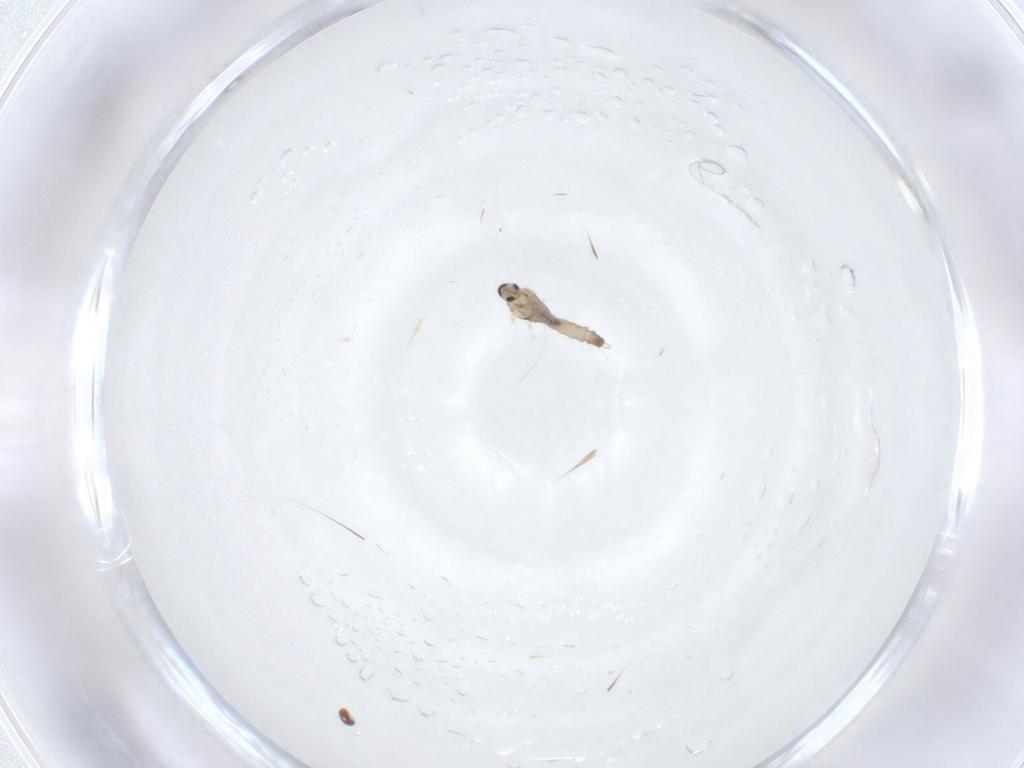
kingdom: Animalia
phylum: Arthropoda
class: Insecta
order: Diptera
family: Cecidomyiidae
